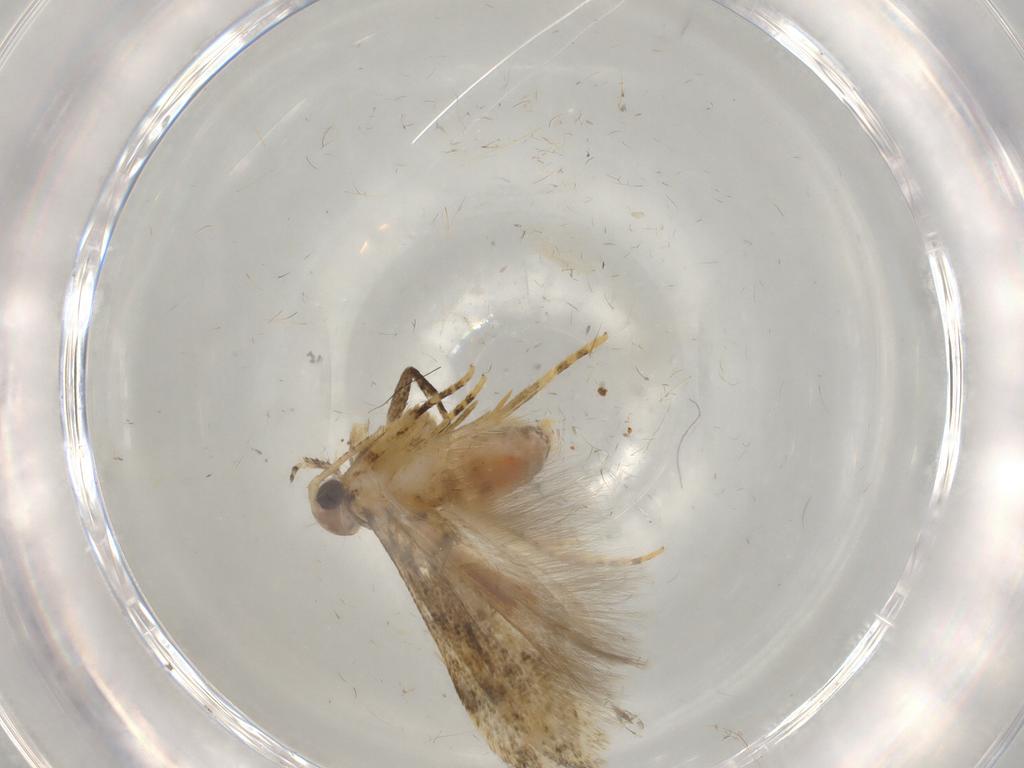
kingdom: Animalia
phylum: Arthropoda
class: Insecta
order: Lepidoptera
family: Gelechiidae
